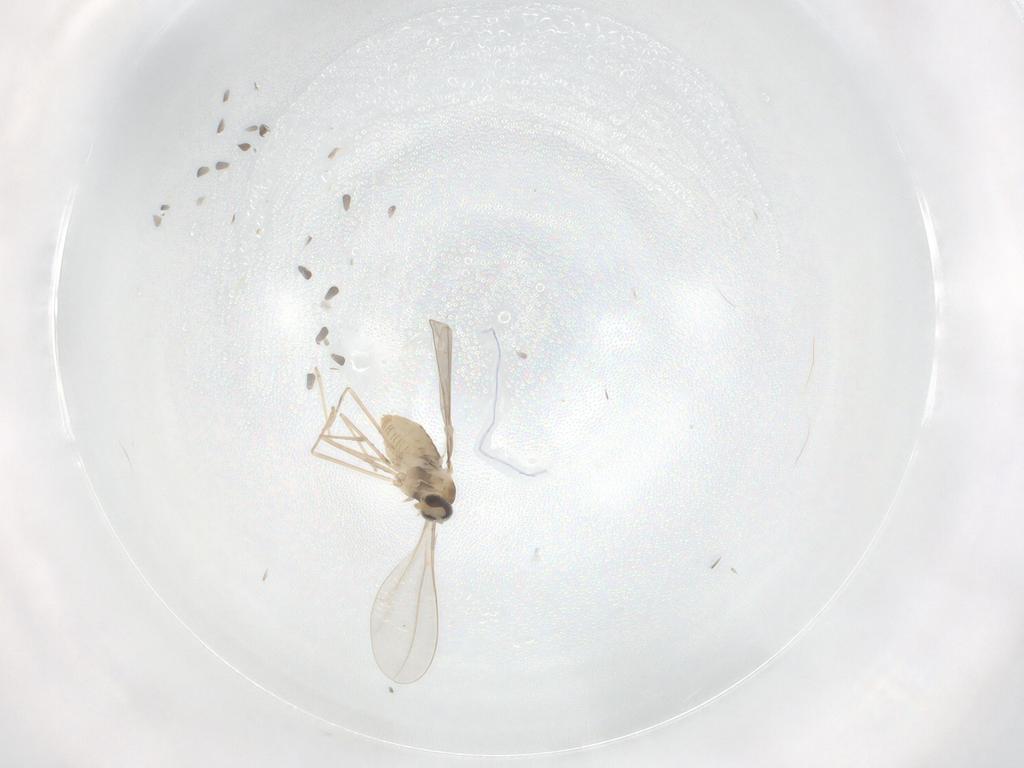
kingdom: Animalia
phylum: Arthropoda
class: Insecta
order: Diptera
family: Cecidomyiidae
